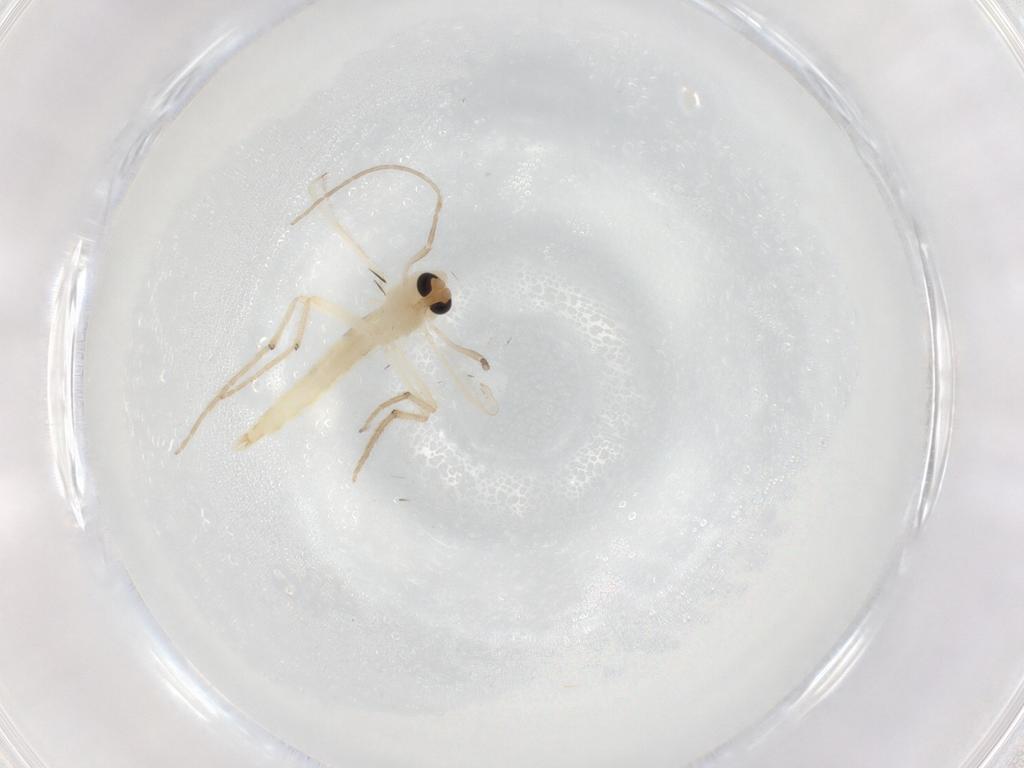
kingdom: Animalia
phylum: Arthropoda
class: Insecta
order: Diptera
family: Chironomidae
